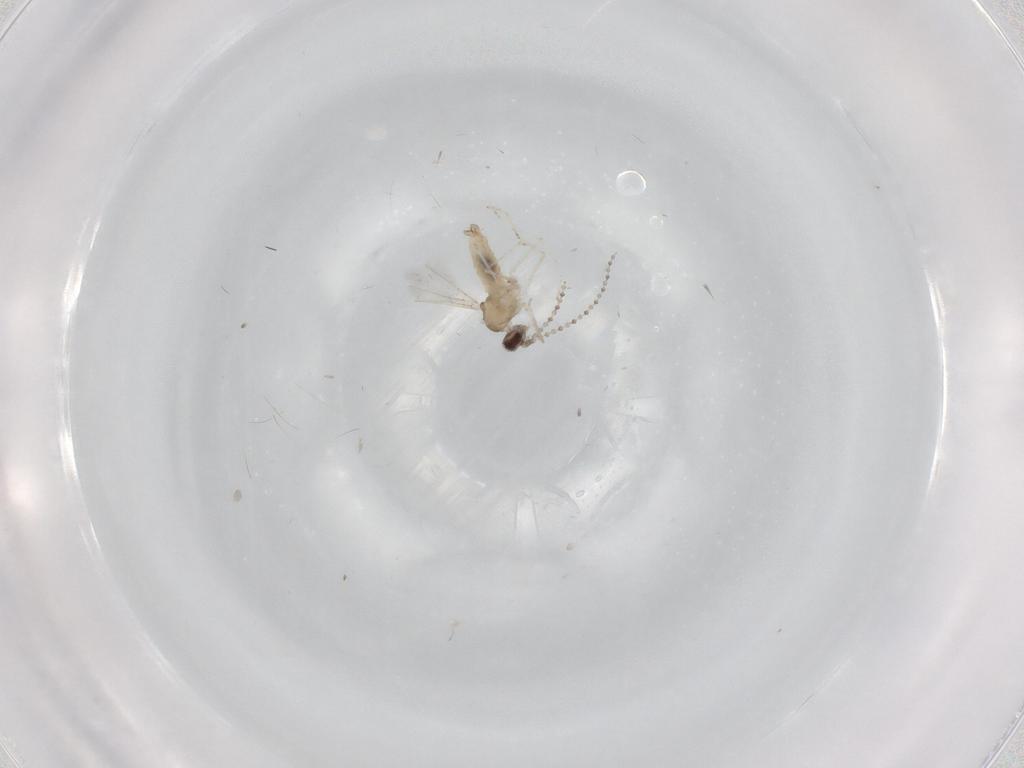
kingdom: Animalia
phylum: Arthropoda
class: Insecta
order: Diptera
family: Cecidomyiidae
